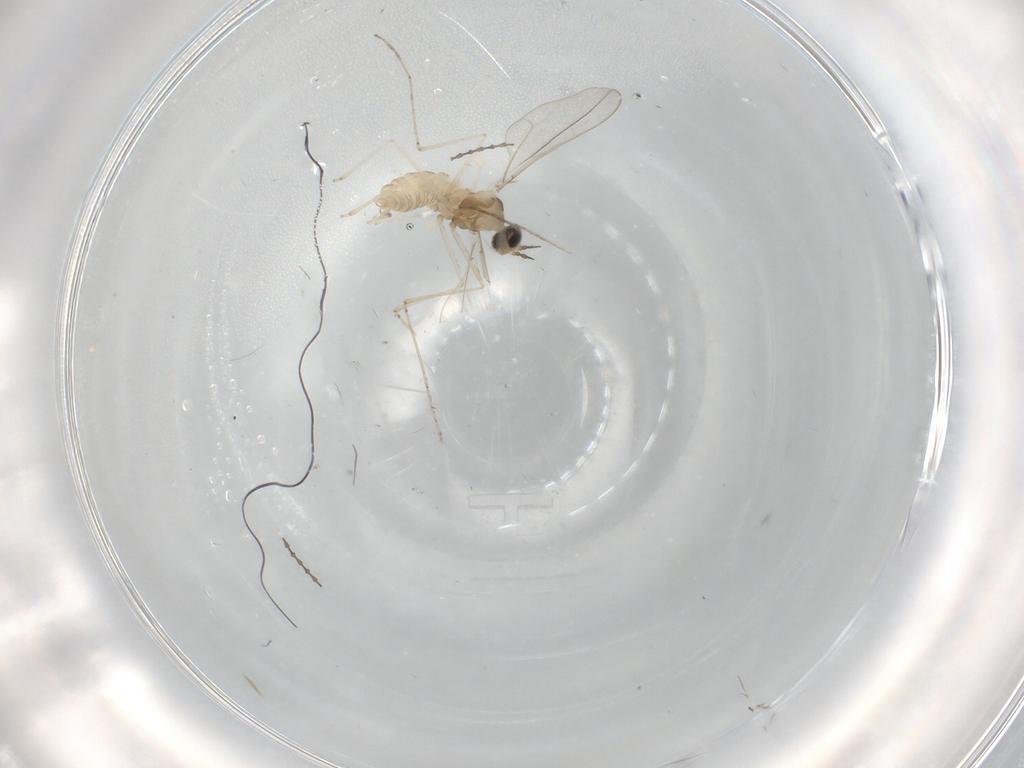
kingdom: Animalia
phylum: Arthropoda
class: Insecta
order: Diptera
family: Cecidomyiidae
